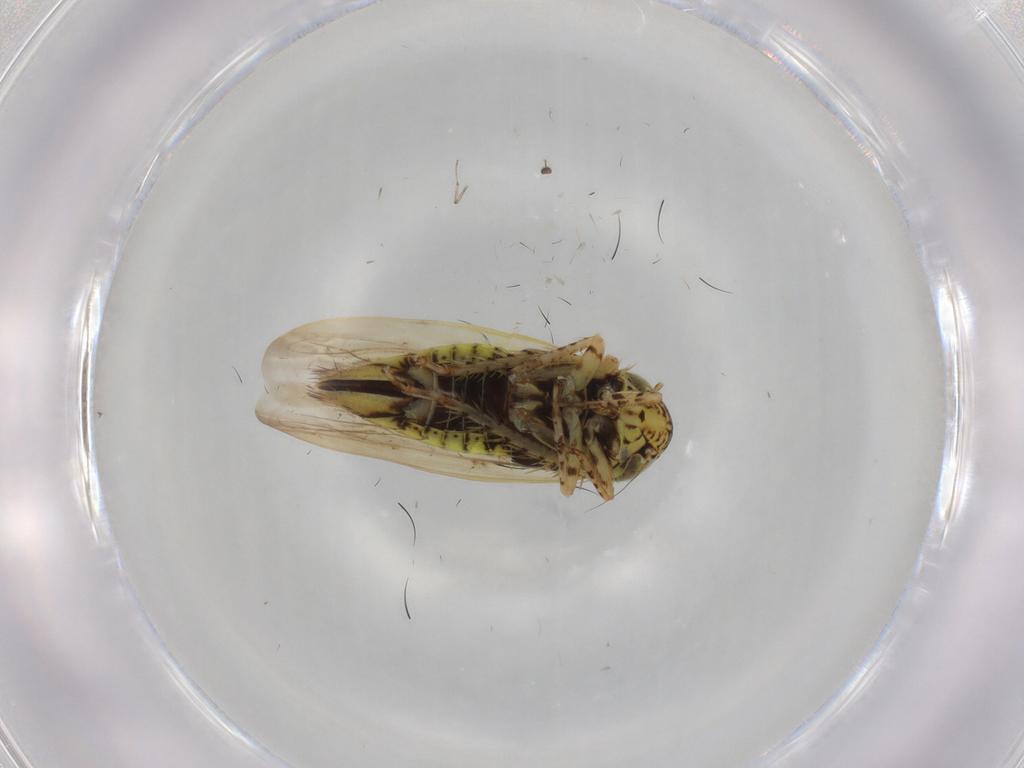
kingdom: Animalia
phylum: Arthropoda
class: Insecta
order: Hemiptera
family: Cicadellidae
